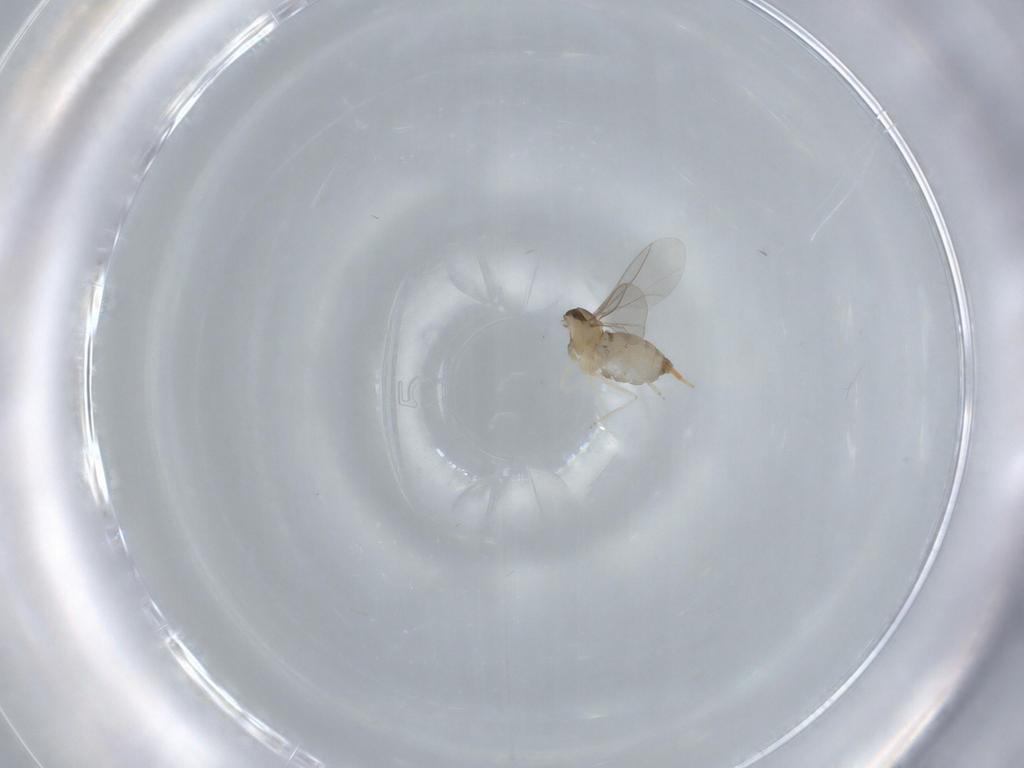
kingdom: Animalia
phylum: Arthropoda
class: Insecta
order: Diptera
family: Cecidomyiidae
